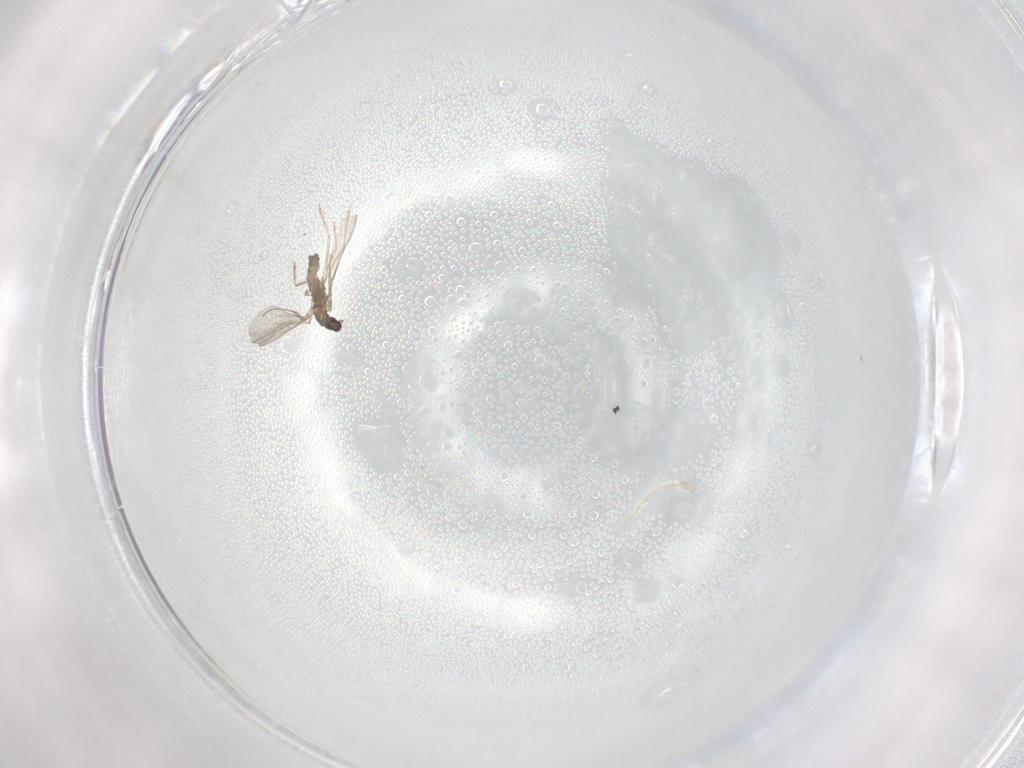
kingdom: Animalia
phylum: Arthropoda
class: Insecta
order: Diptera
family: Cecidomyiidae
